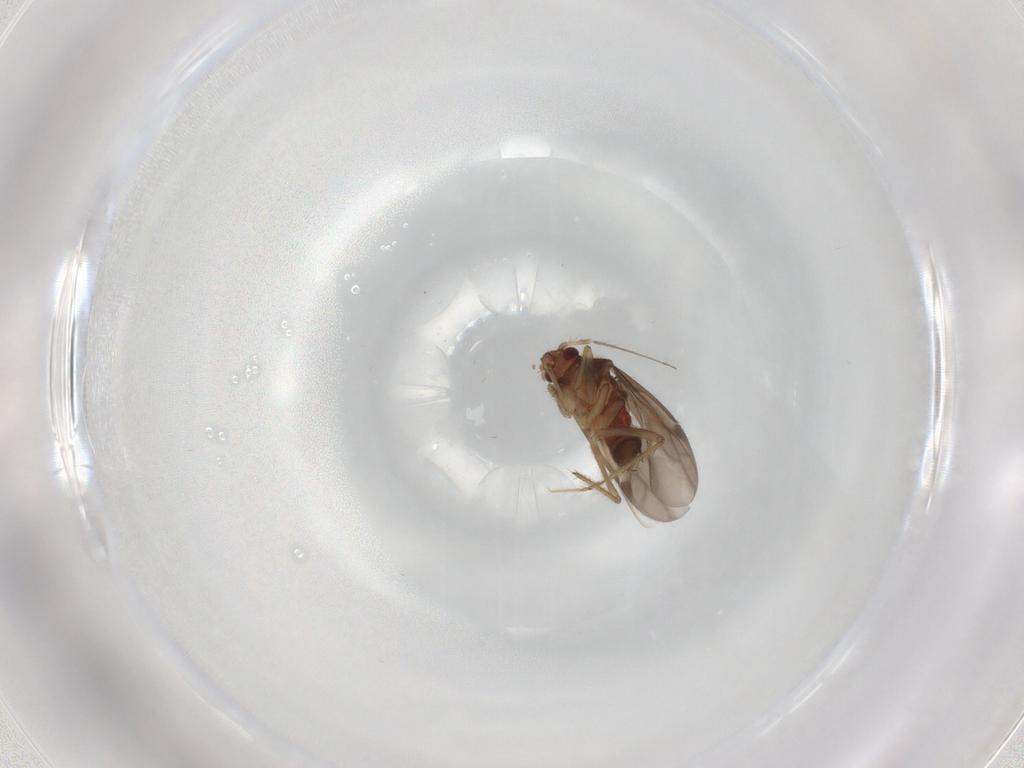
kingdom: Animalia
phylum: Arthropoda
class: Insecta
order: Hemiptera
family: Ceratocombidae
